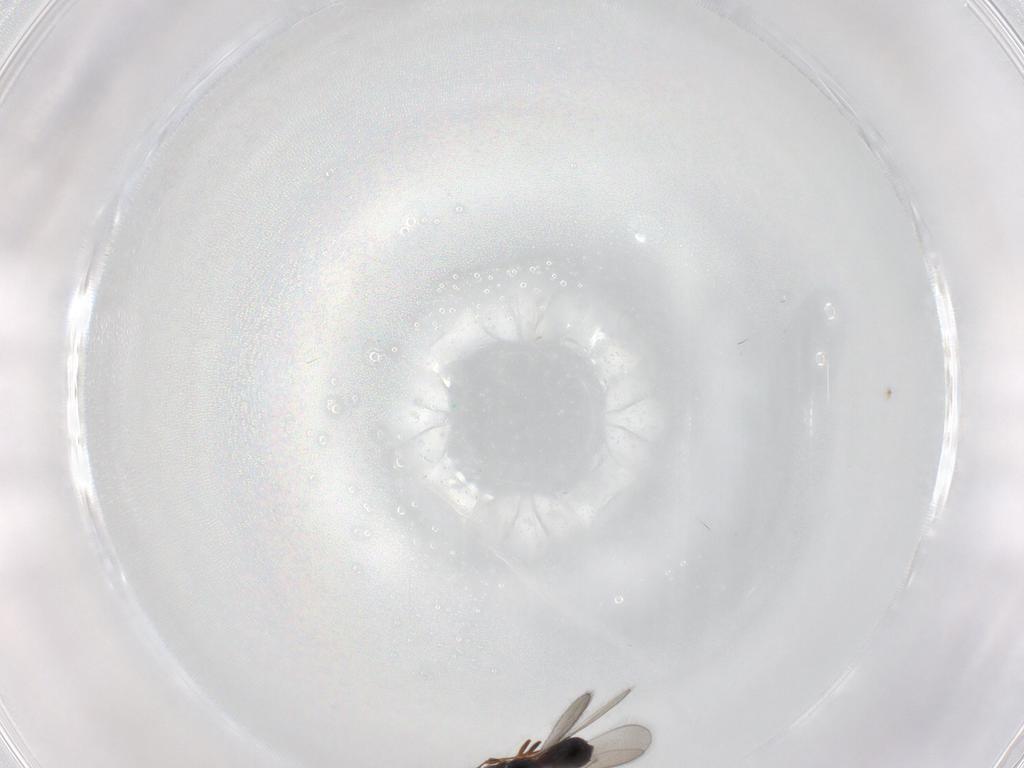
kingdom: Animalia
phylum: Arthropoda
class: Insecta
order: Hymenoptera
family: Scelionidae
